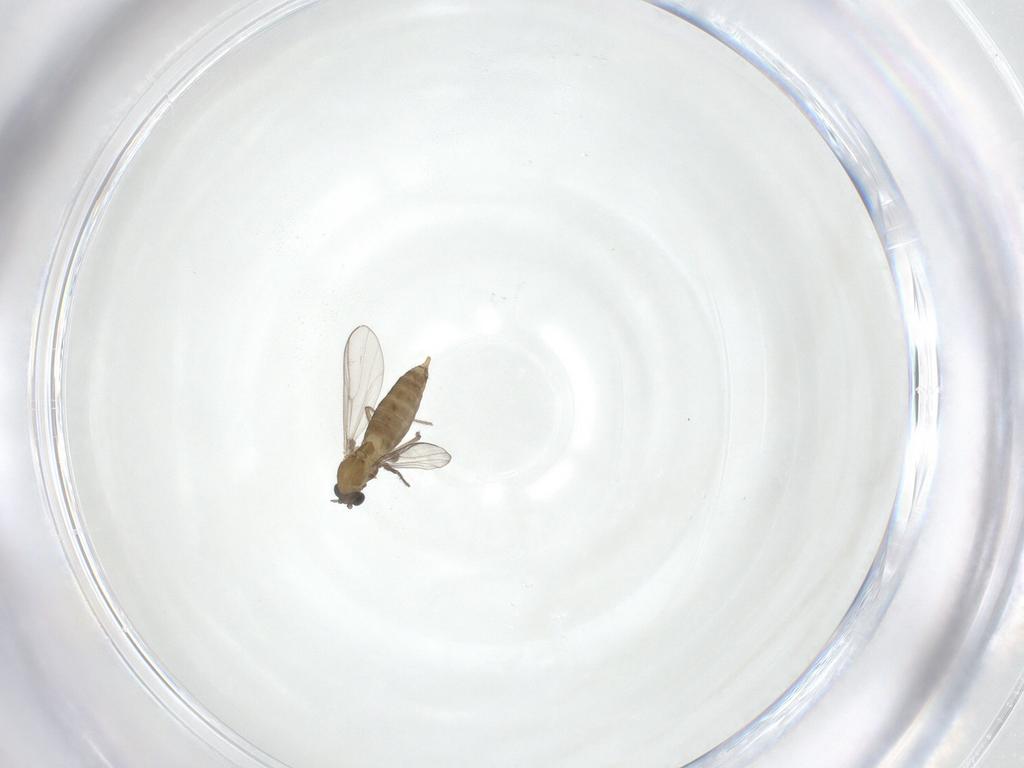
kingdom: Animalia
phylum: Arthropoda
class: Insecta
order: Diptera
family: Chironomidae
